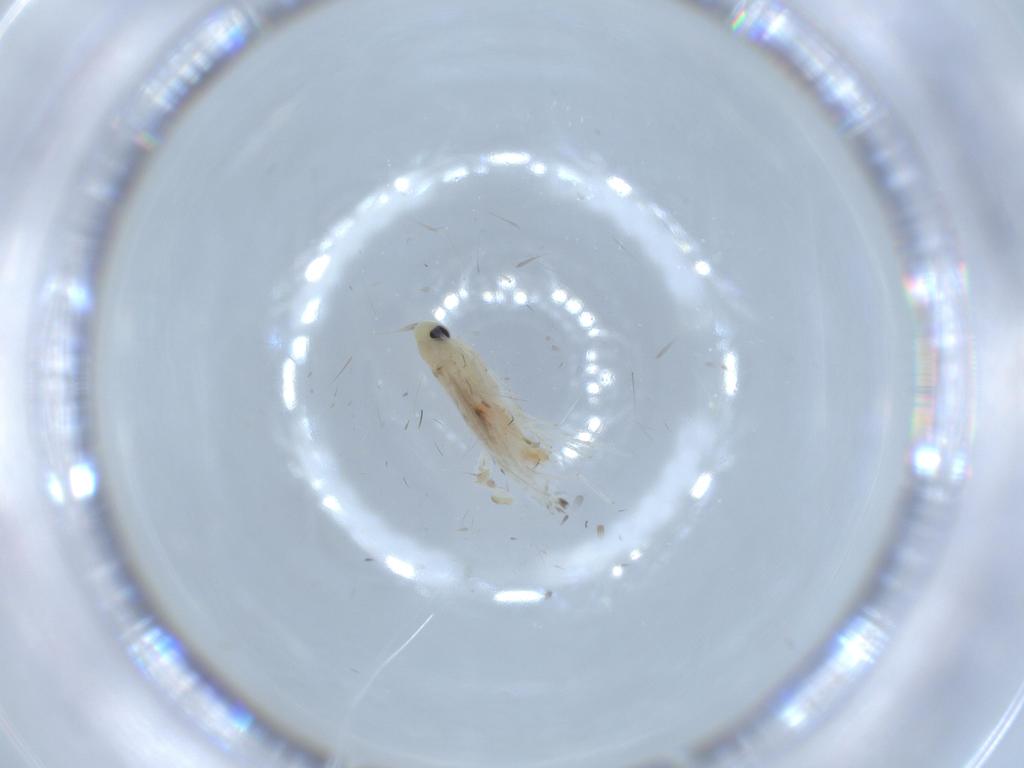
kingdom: Animalia
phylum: Arthropoda
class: Insecta
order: Lepidoptera
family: Gracillariidae
